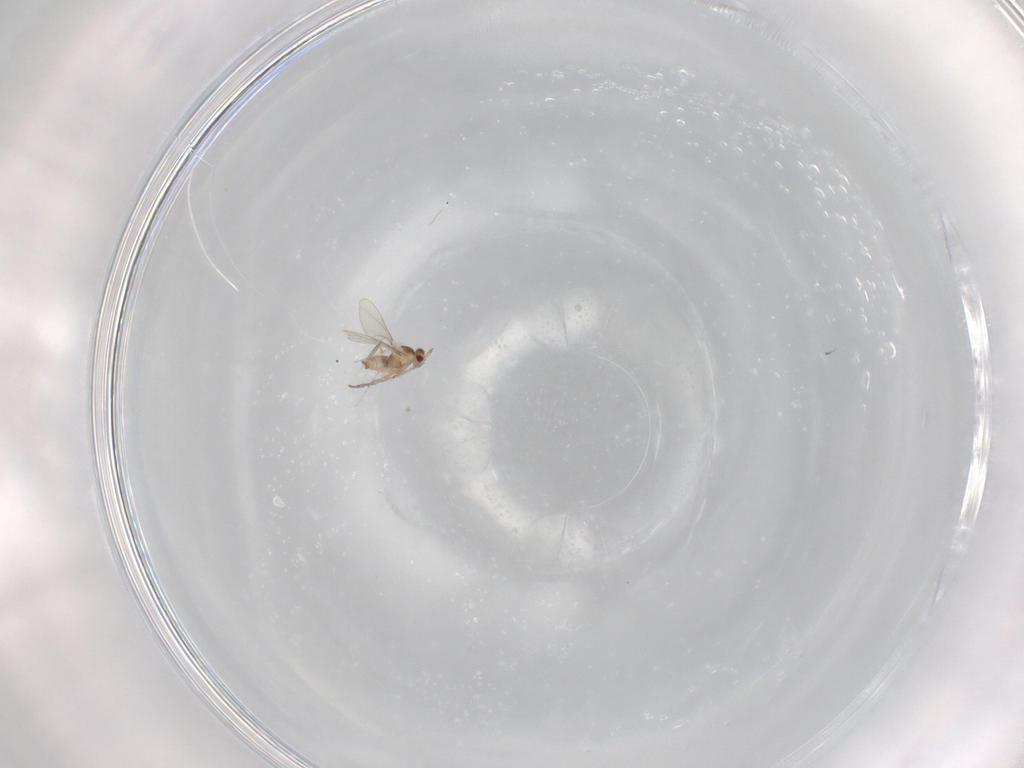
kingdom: Animalia
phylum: Arthropoda
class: Insecta
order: Diptera
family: Cecidomyiidae
